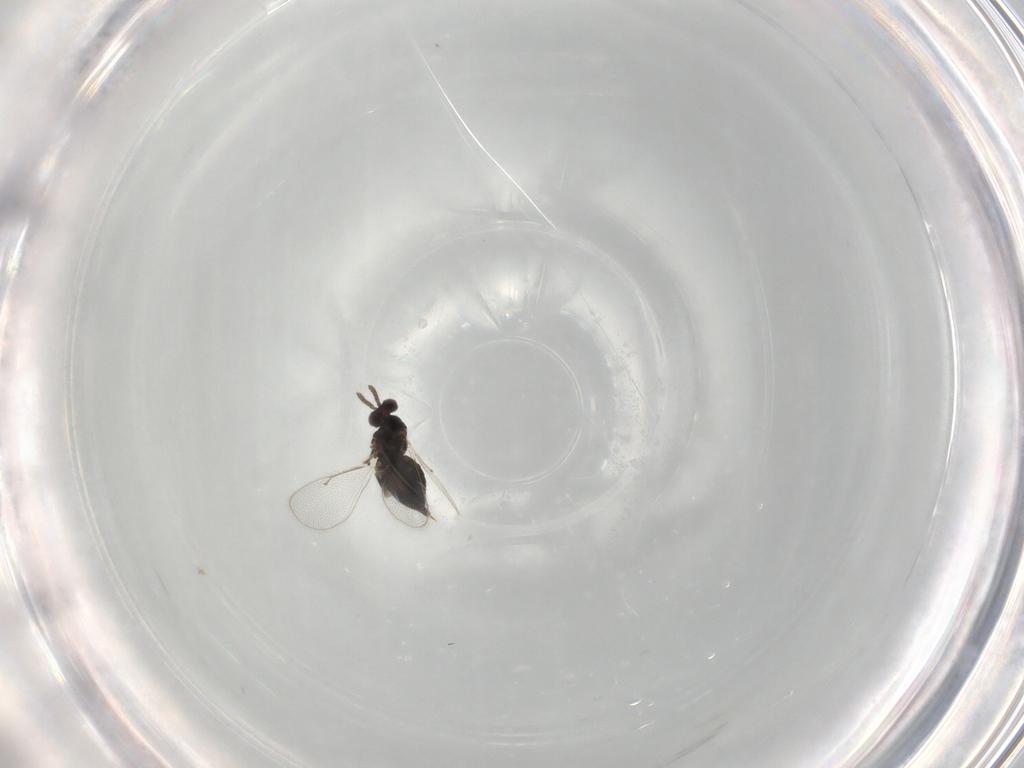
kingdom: Animalia
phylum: Arthropoda
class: Insecta
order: Hymenoptera
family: Eulophidae
